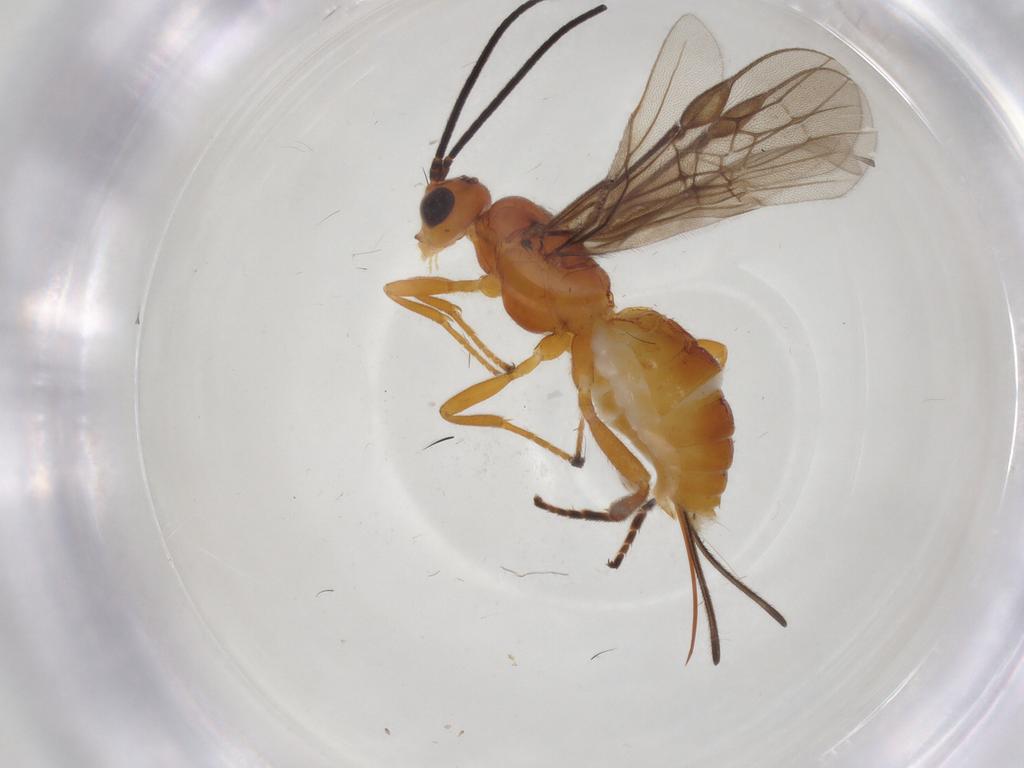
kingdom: Animalia
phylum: Arthropoda
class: Insecta
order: Hymenoptera
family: Braconidae
